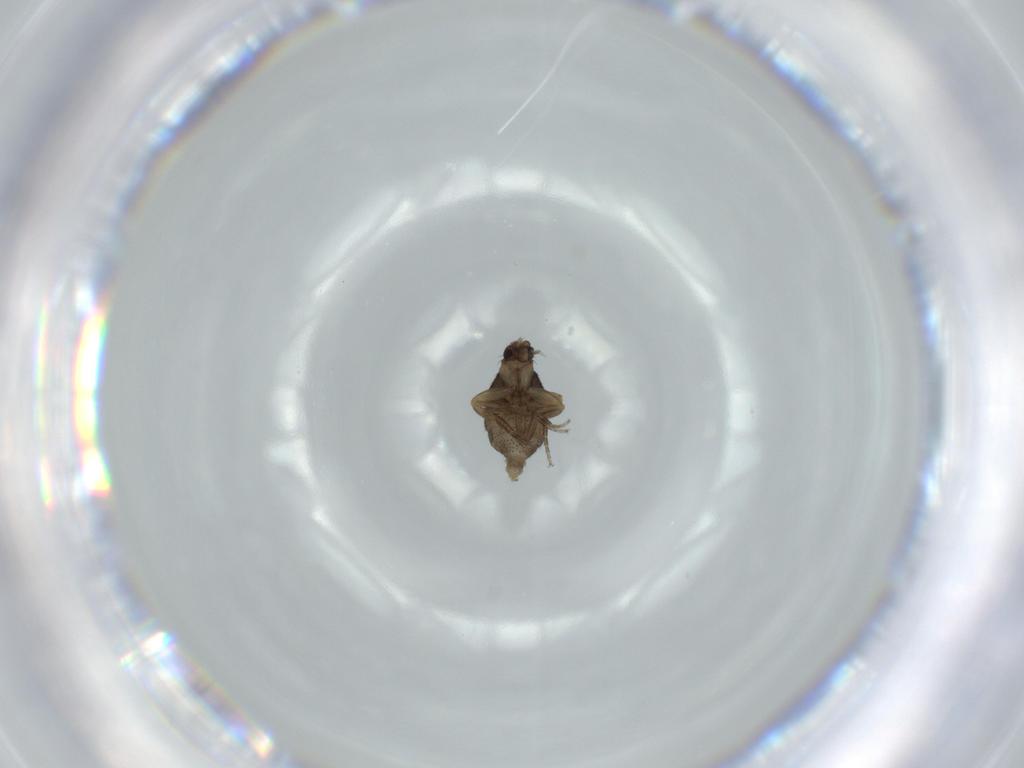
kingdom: Animalia
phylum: Arthropoda
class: Insecta
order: Diptera
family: Phoridae
